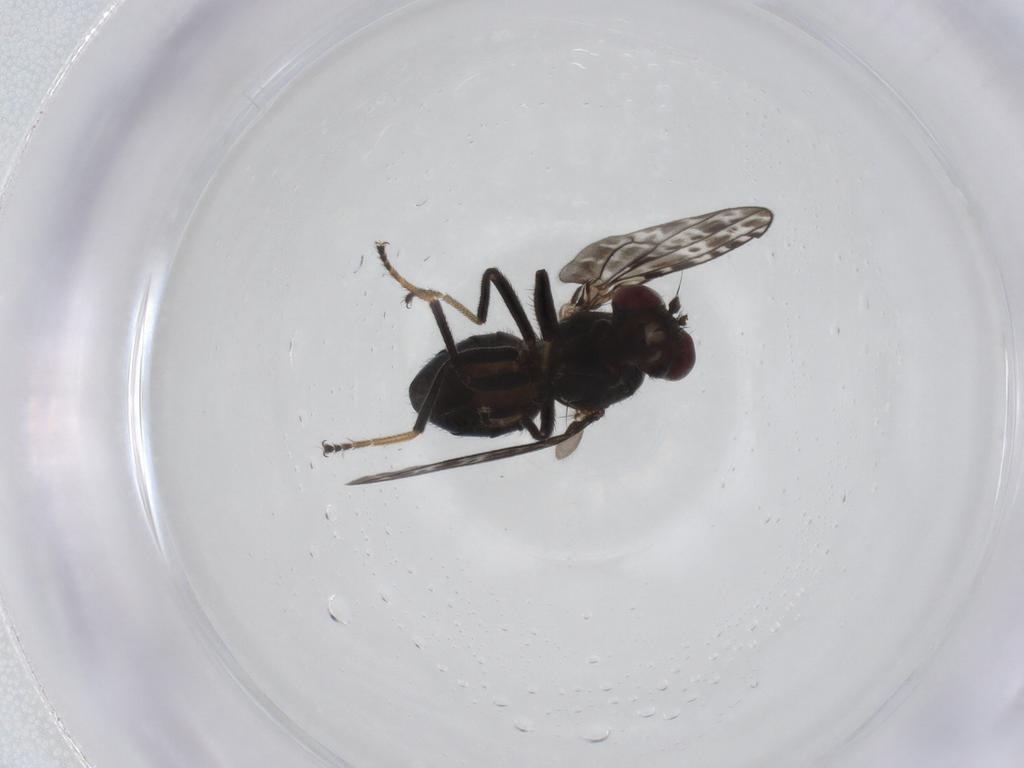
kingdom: Animalia
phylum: Arthropoda
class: Insecta
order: Diptera
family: Ephydridae
